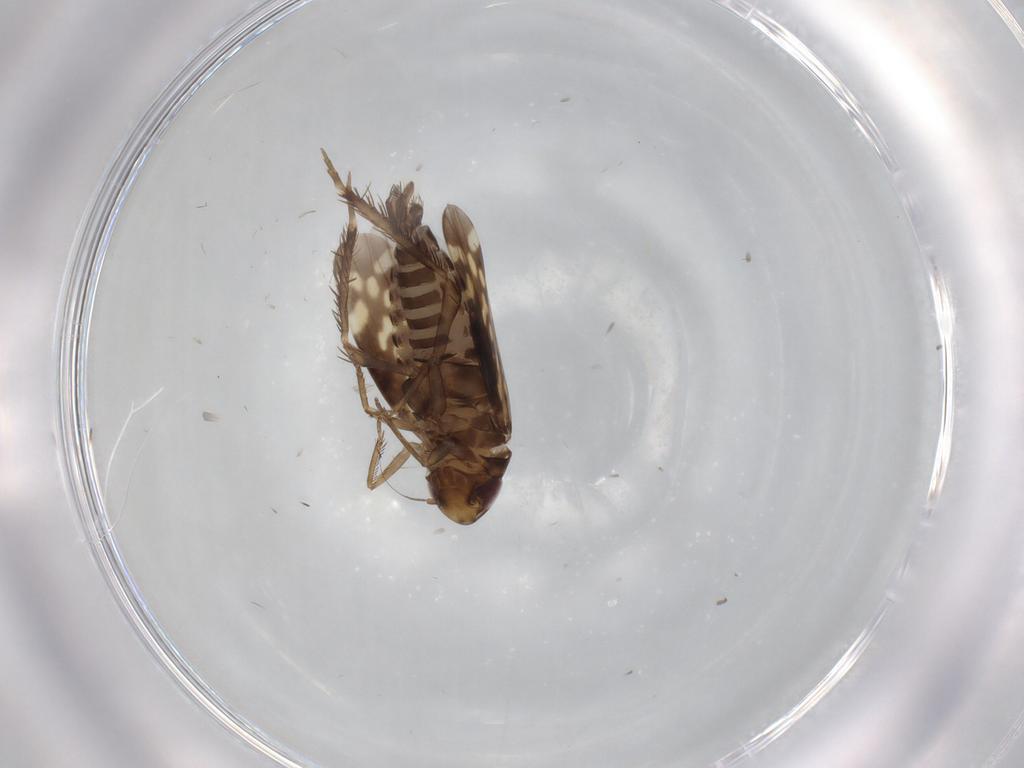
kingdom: Animalia
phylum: Arthropoda
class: Insecta
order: Hemiptera
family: Cicadellidae
